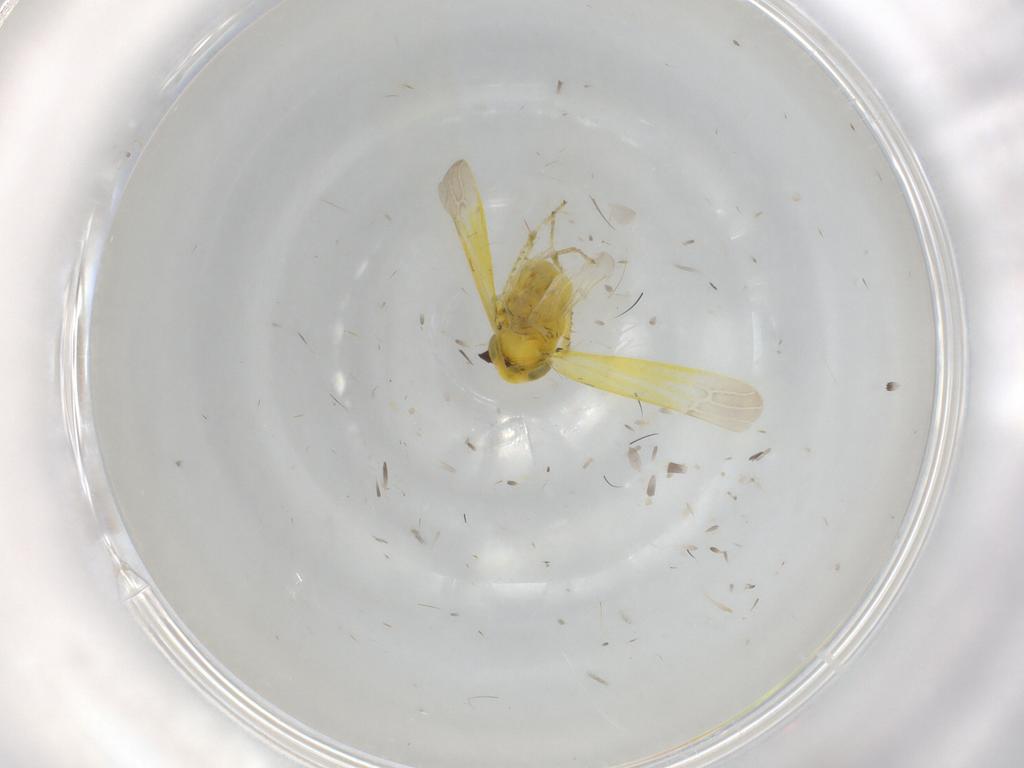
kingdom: Animalia
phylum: Arthropoda
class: Insecta
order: Hemiptera
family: Cicadellidae
